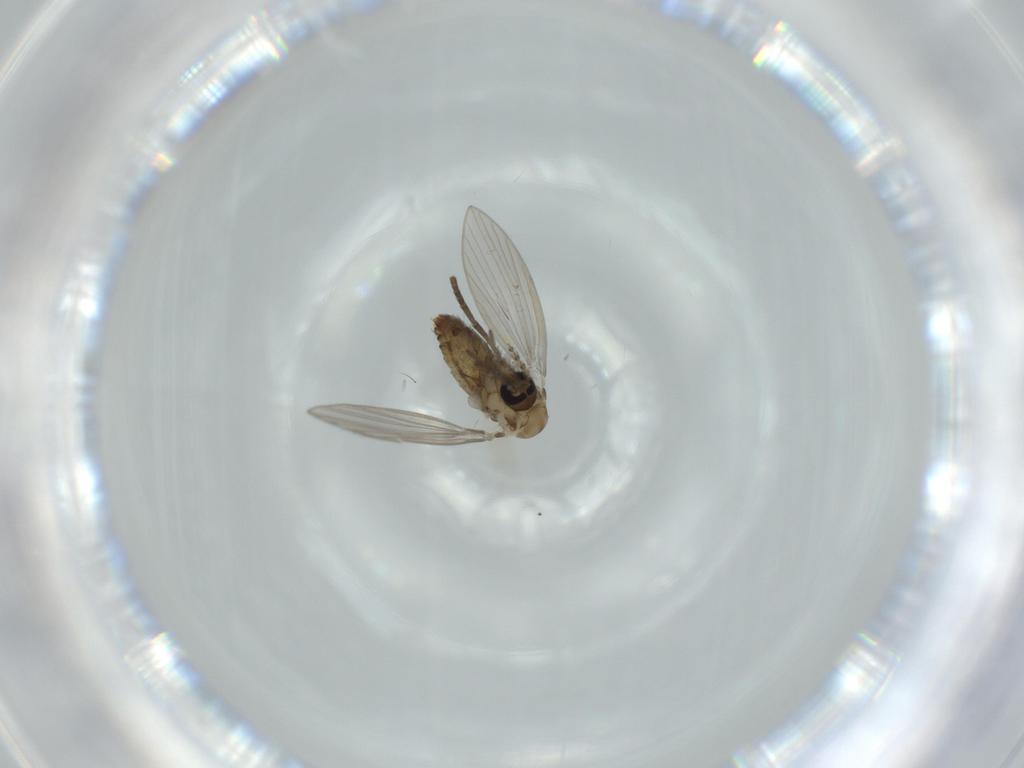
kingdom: Animalia
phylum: Arthropoda
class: Insecta
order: Diptera
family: Psychodidae
